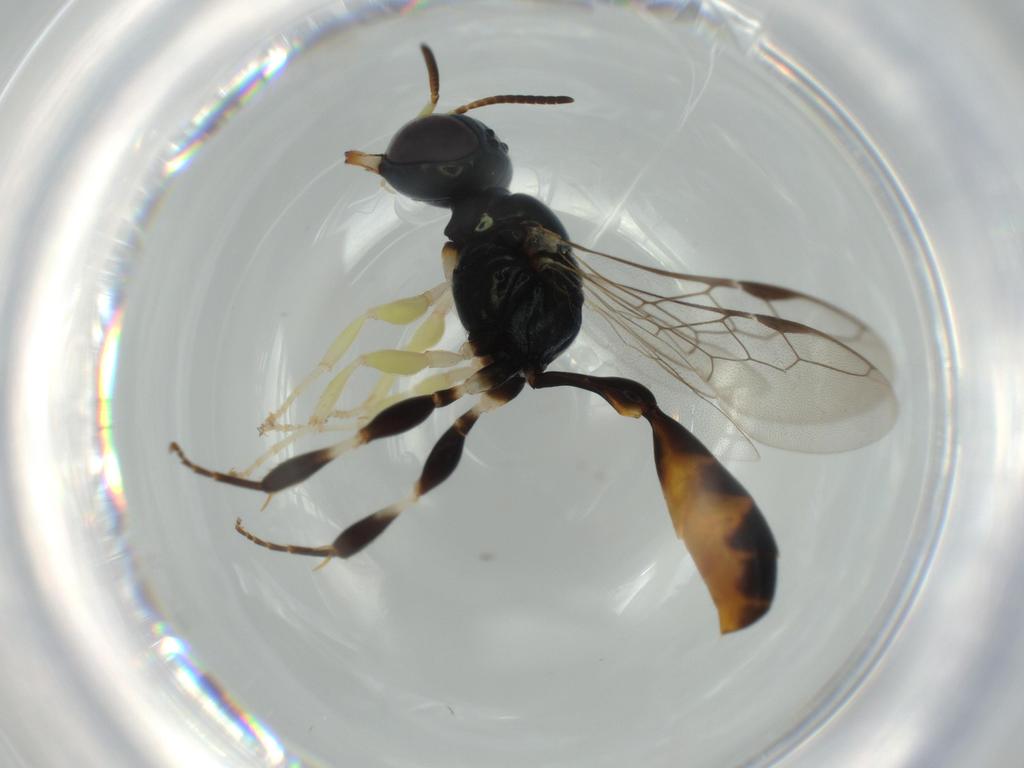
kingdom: Animalia
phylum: Arthropoda
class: Insecta
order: Hymenoptera
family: Crabronidae
